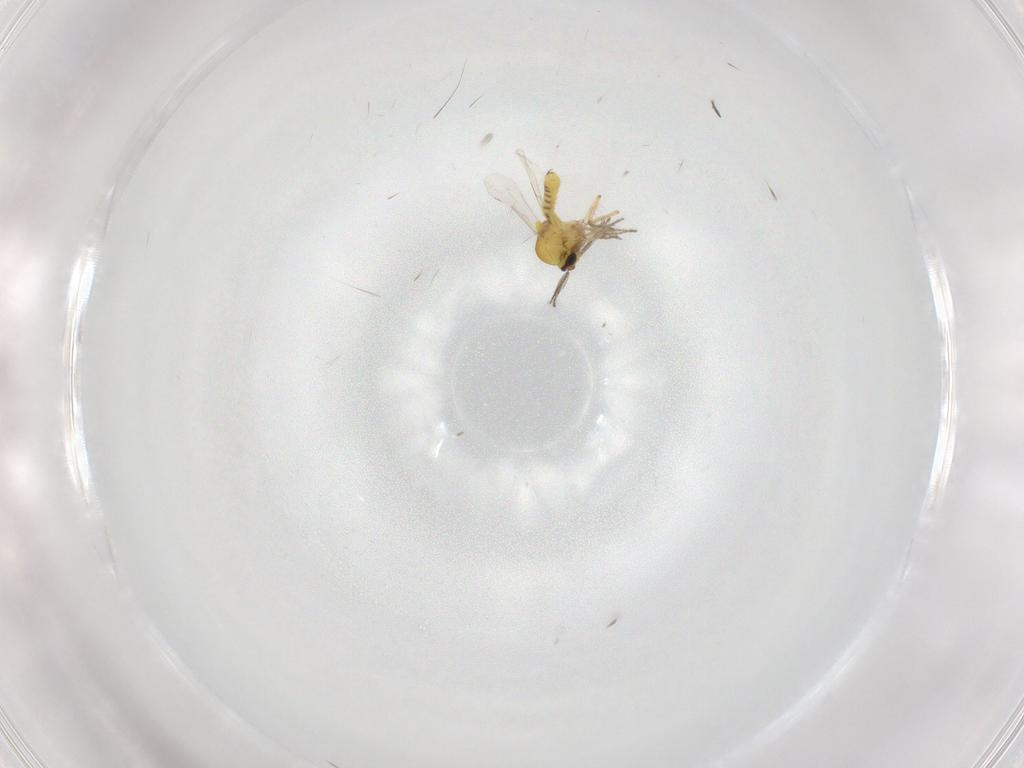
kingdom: Animalia
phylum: Arthropoda
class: Insecta
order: Diptera
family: Ceratopogonidae
